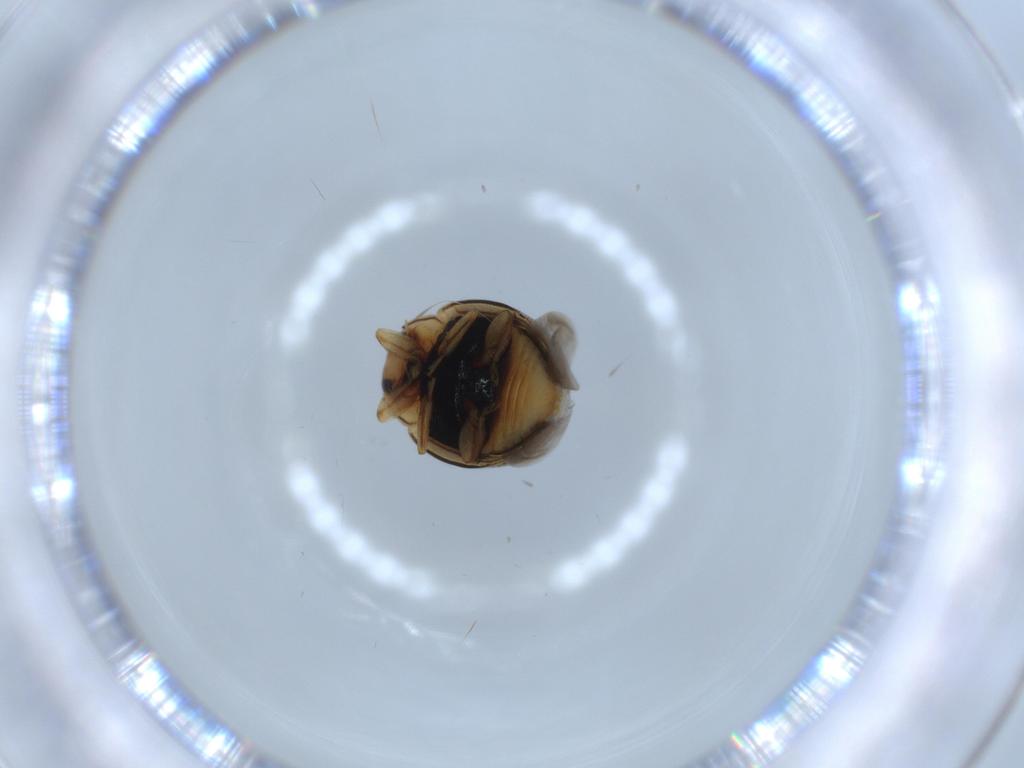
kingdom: Animalia
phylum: Arthropoda
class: Insecta
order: Coleoptera
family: Coccinellidae
